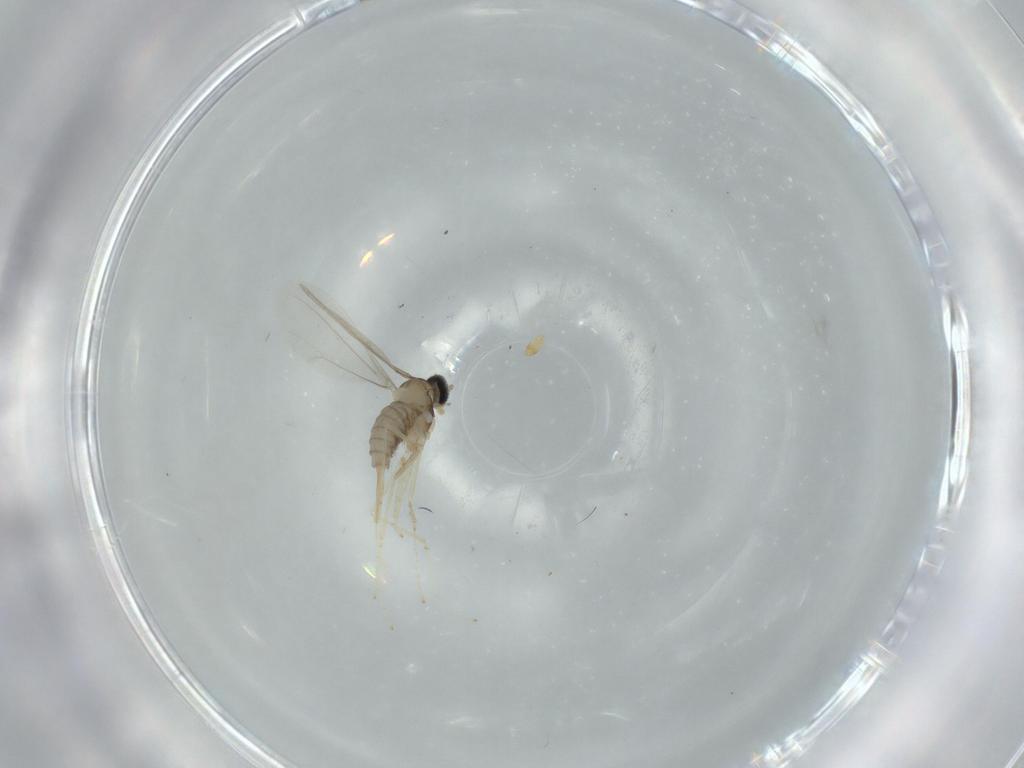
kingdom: Animalia
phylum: Arthropoda
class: Insecta
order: Diptera
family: Cecidomyiidae
